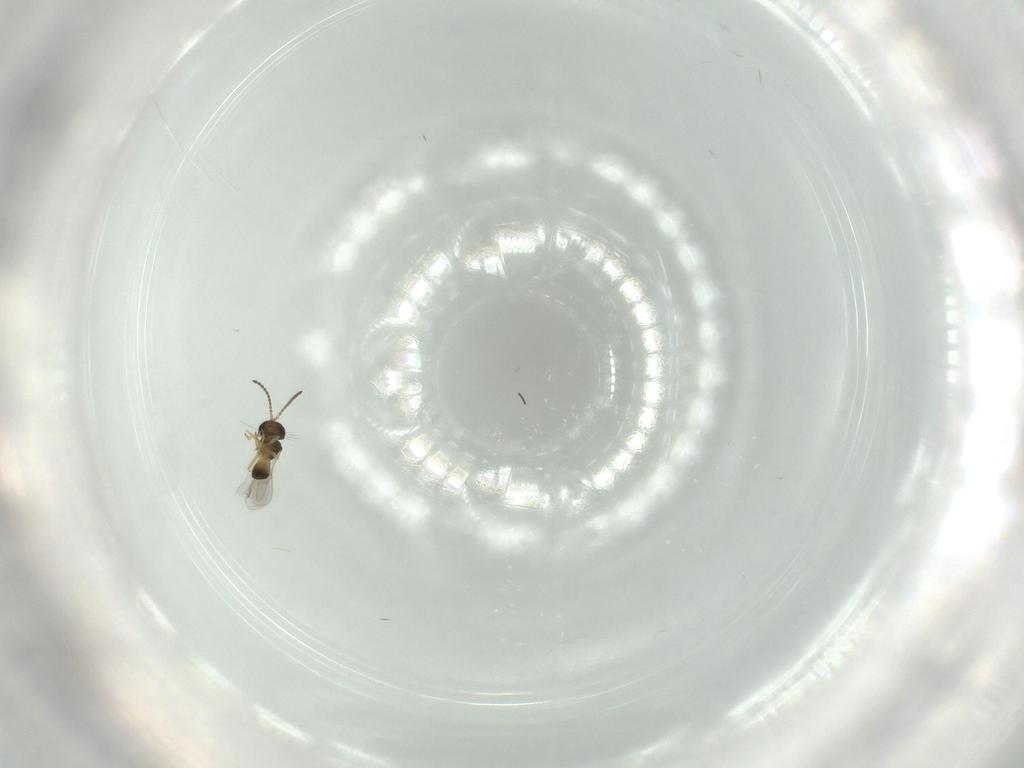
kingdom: Animalia
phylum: Arthropoda
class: Insecta
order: Hymenoptera
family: Scelionidae
